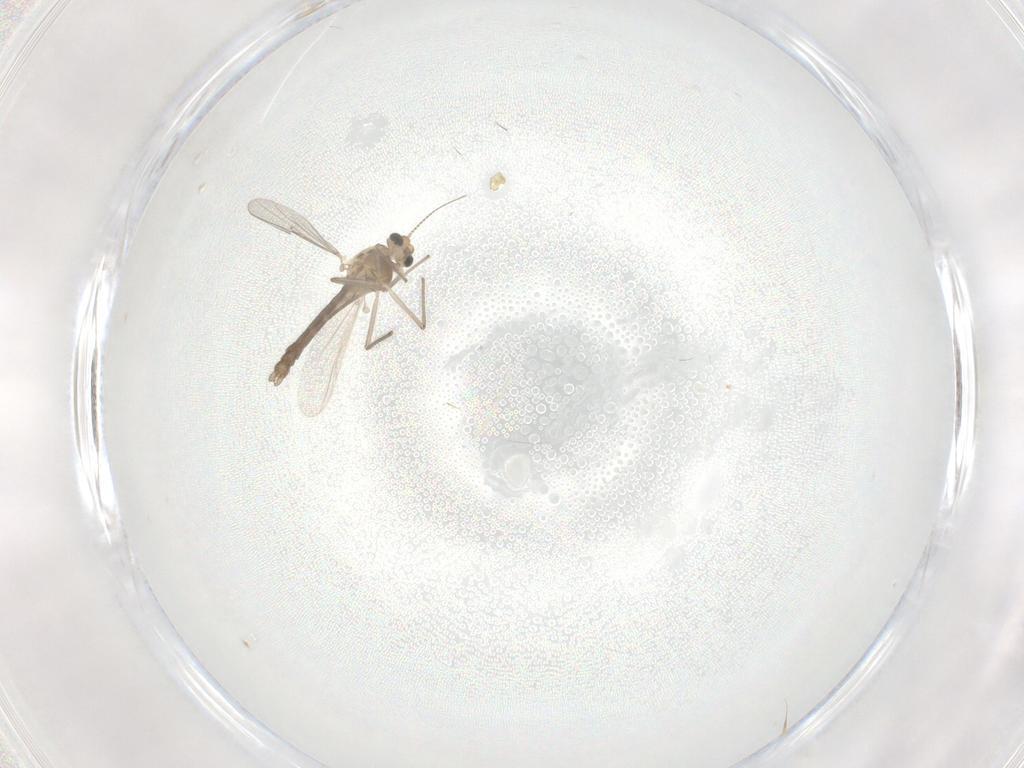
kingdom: Animalia
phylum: Arthropoda
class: Insecta
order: Diptera
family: Chironomidae
